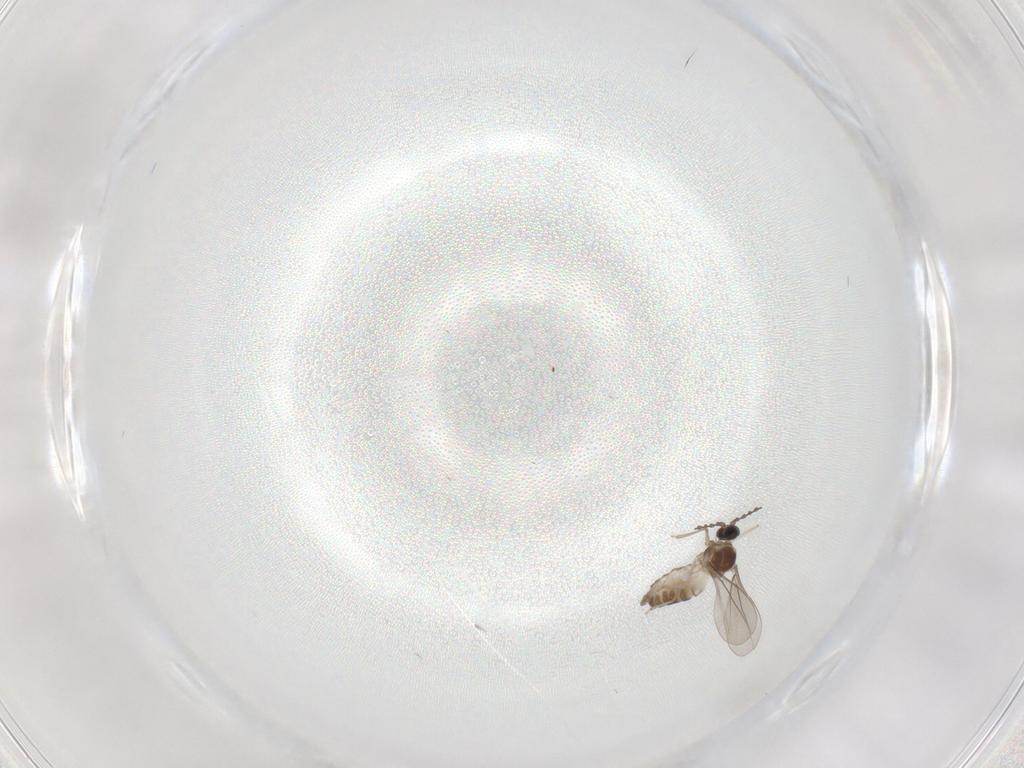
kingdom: Animalia
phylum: Arthropoda
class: Insecta
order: Diptera
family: Cecidomyiidae
